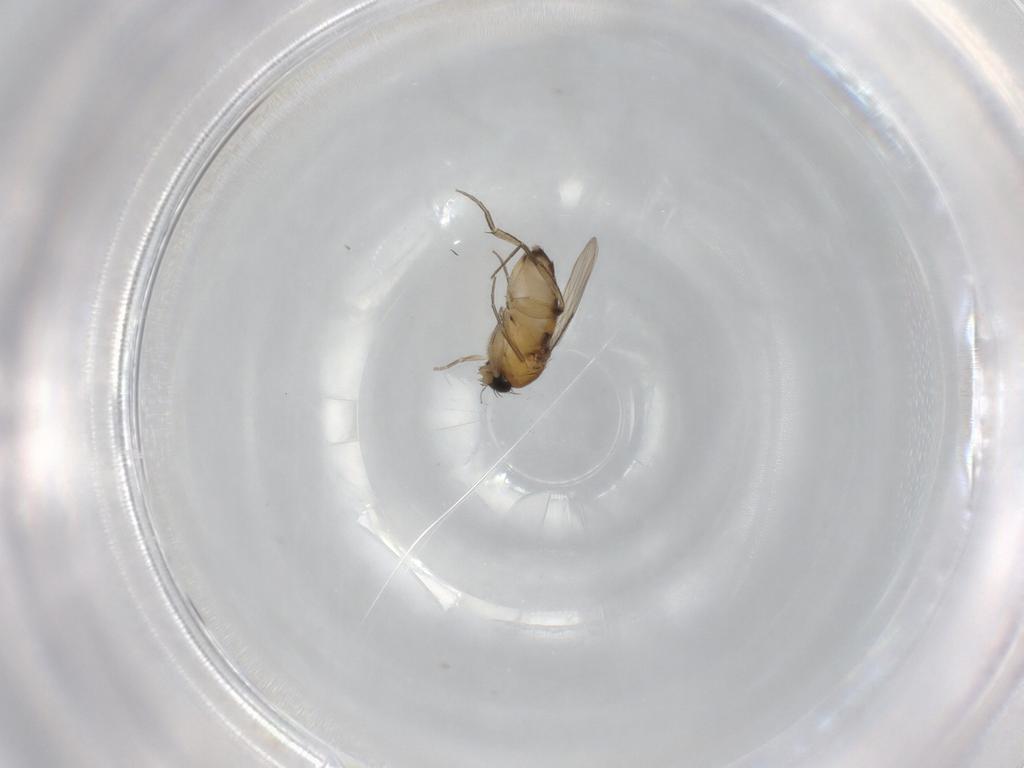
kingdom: Animalia
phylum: Arthropoda
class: Insecta
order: Diptera
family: Phoridae
